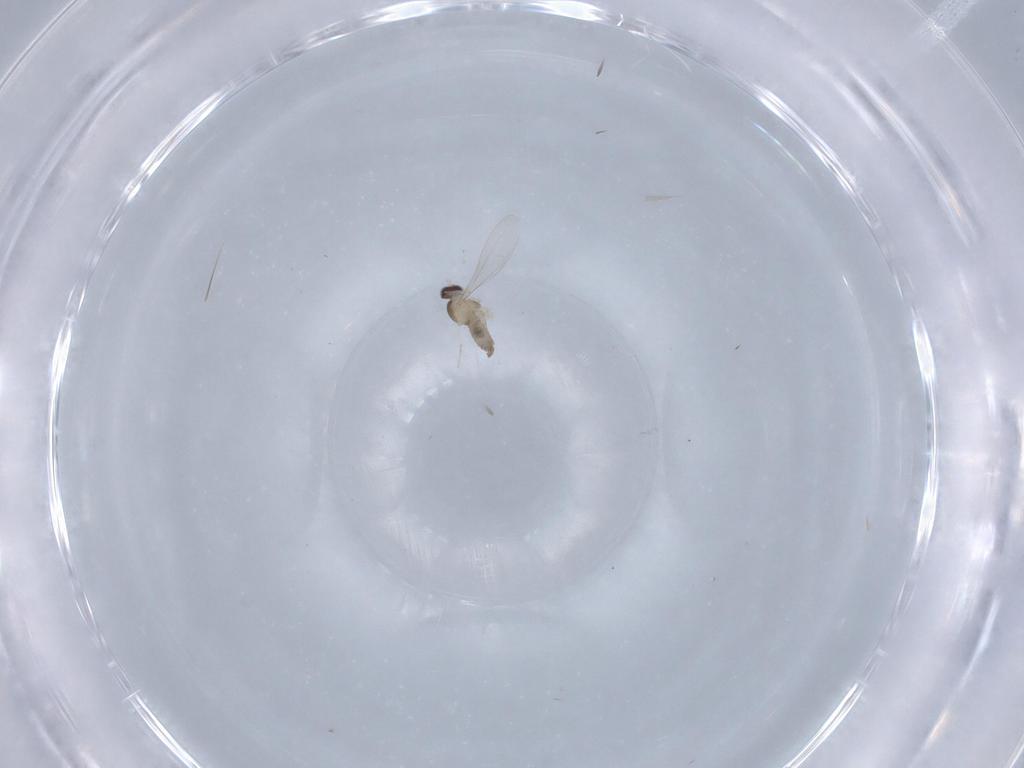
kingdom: Animalia
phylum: Arthropoda
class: Insecta
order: Diptera
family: Cecidomyiidae
